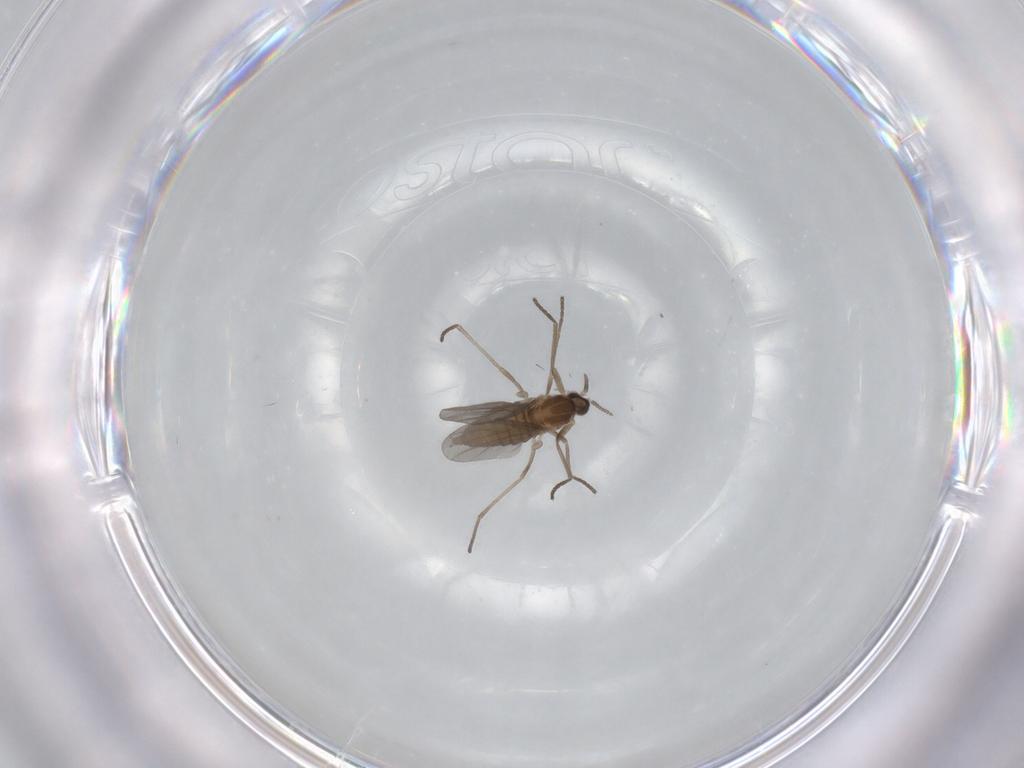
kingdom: Animalia
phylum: Arthropoda
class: Insecta
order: Diptera
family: Cecidomyiidae
